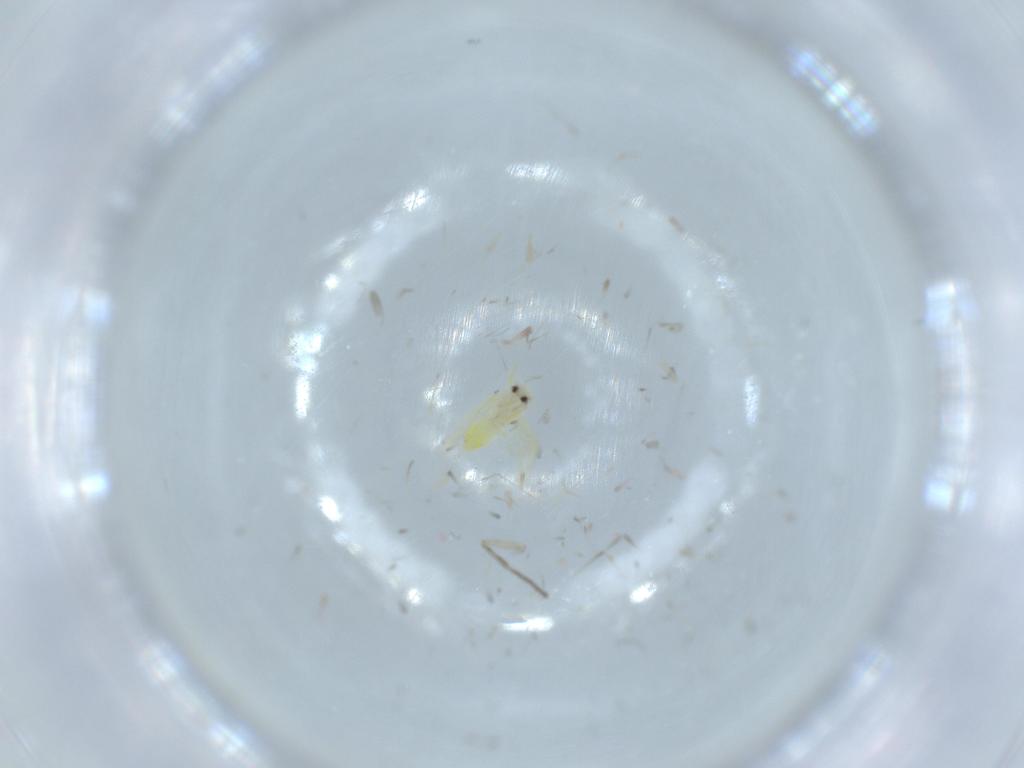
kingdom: Animalia
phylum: Arthropoda
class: Insecta
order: Hemiptera
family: Aleyrodidae
